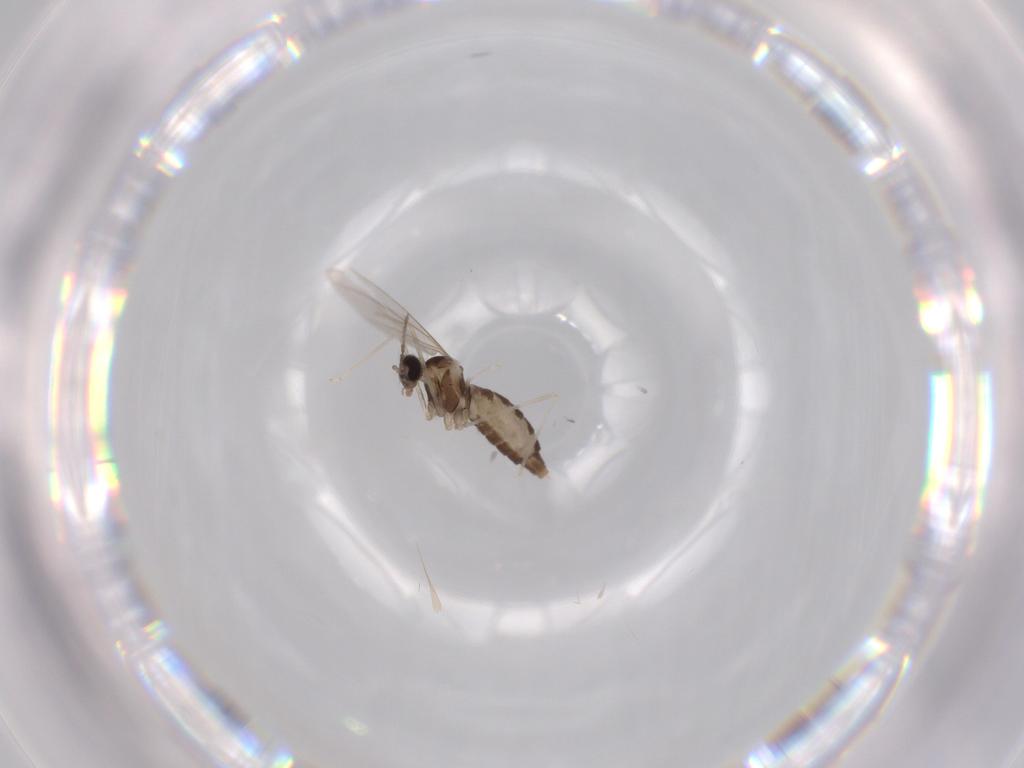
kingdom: Animalia
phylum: Arthropoda
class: Insecta
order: Diptera
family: Cecidomyiidae
